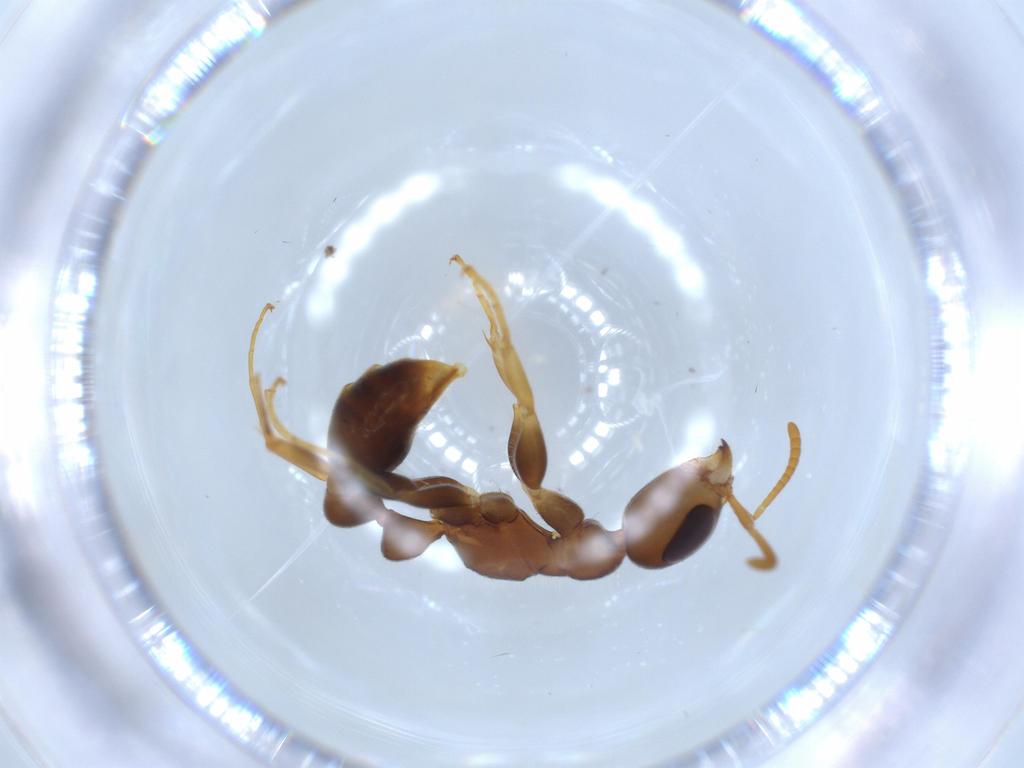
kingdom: Animalia
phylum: Arthropoda
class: Insecta
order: Hymenoptera
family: Formicidae
